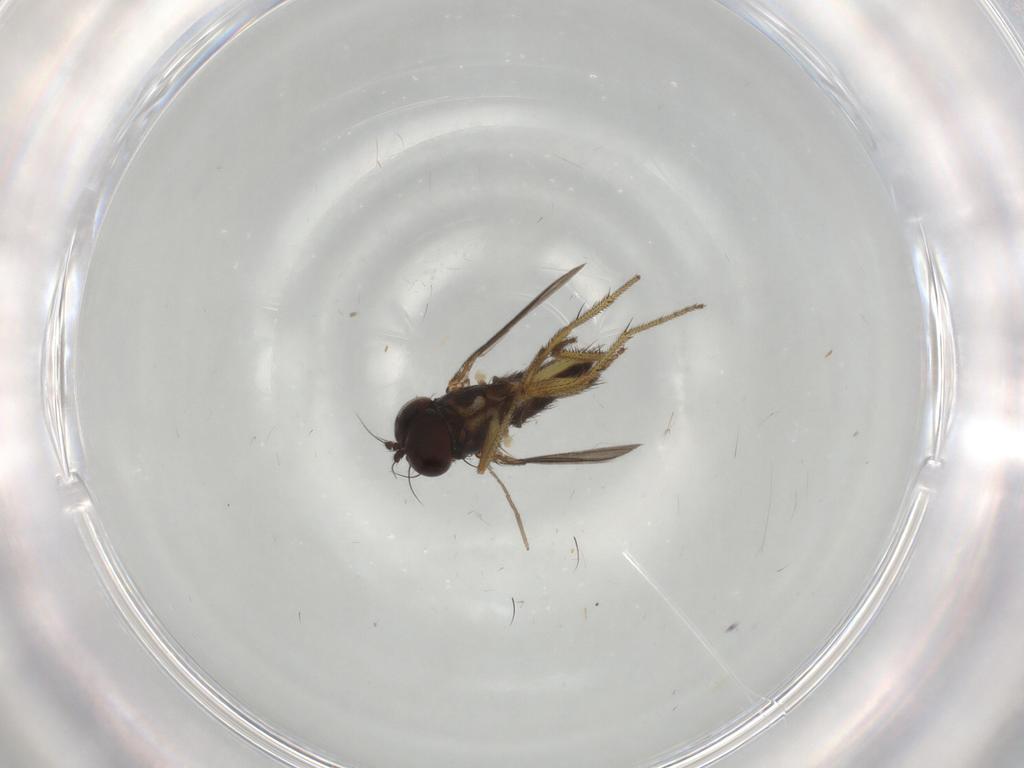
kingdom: Animalia
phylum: Arthropoda
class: Insecta
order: Diptera
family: Dolichopodidae
